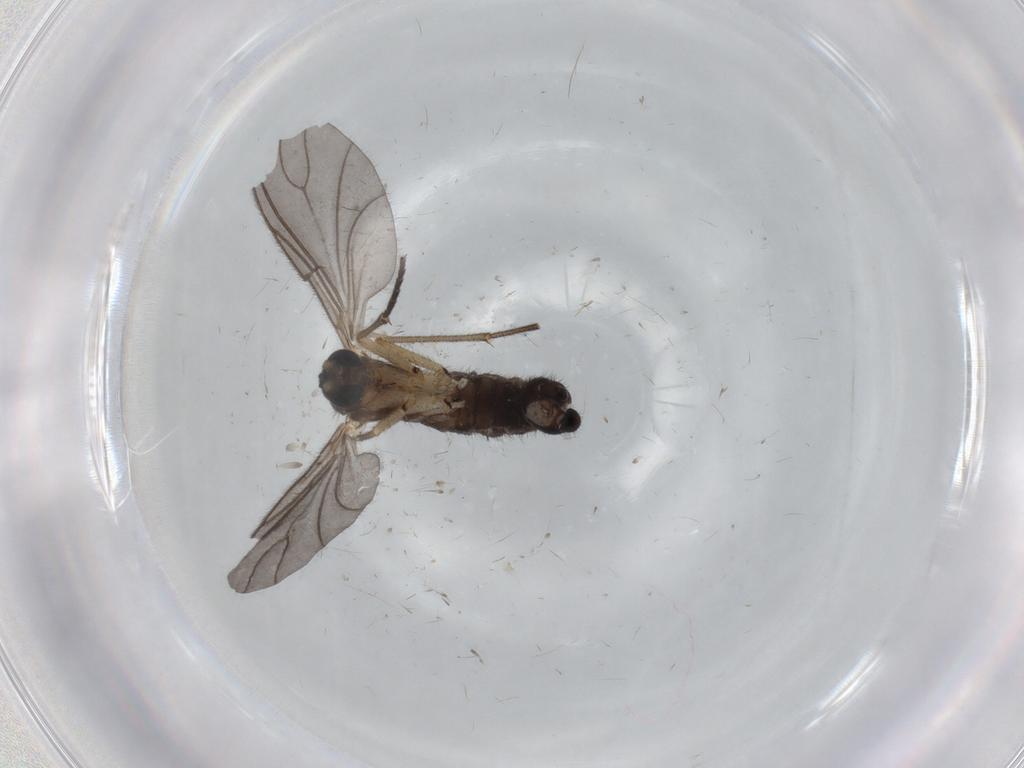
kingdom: Animalia
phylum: Arthropoda
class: Insecta
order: Diptera
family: Sciaridae
